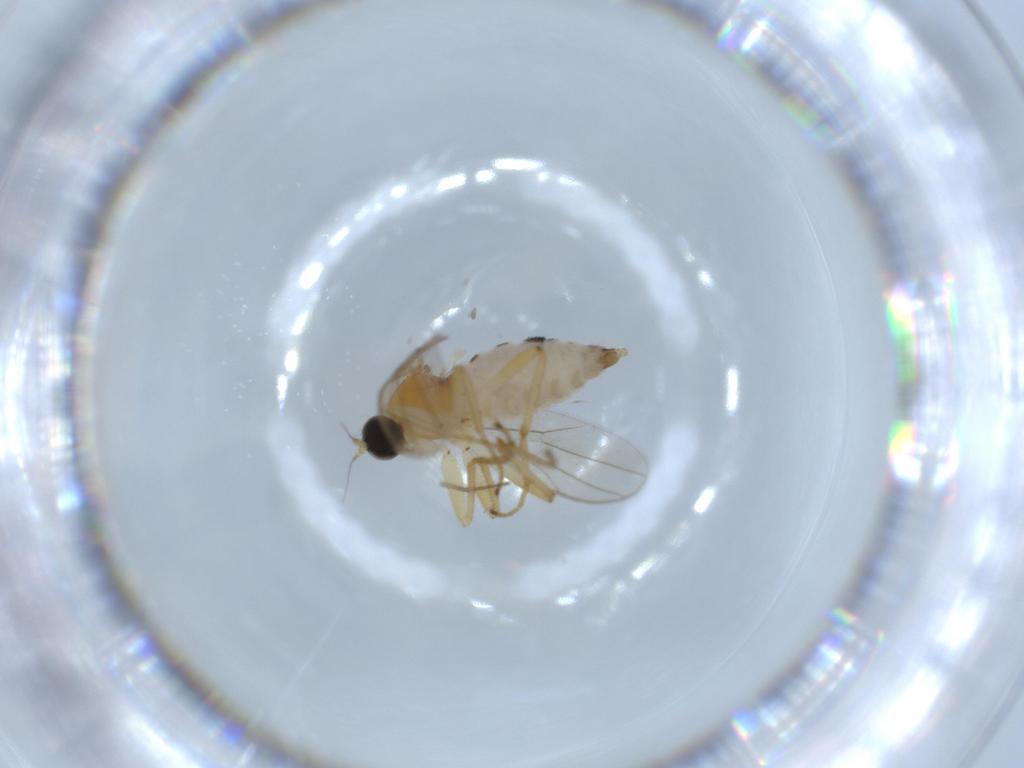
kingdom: Animalia
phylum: Arthropoda
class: Insecta
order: Diptera
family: Hybotidae
